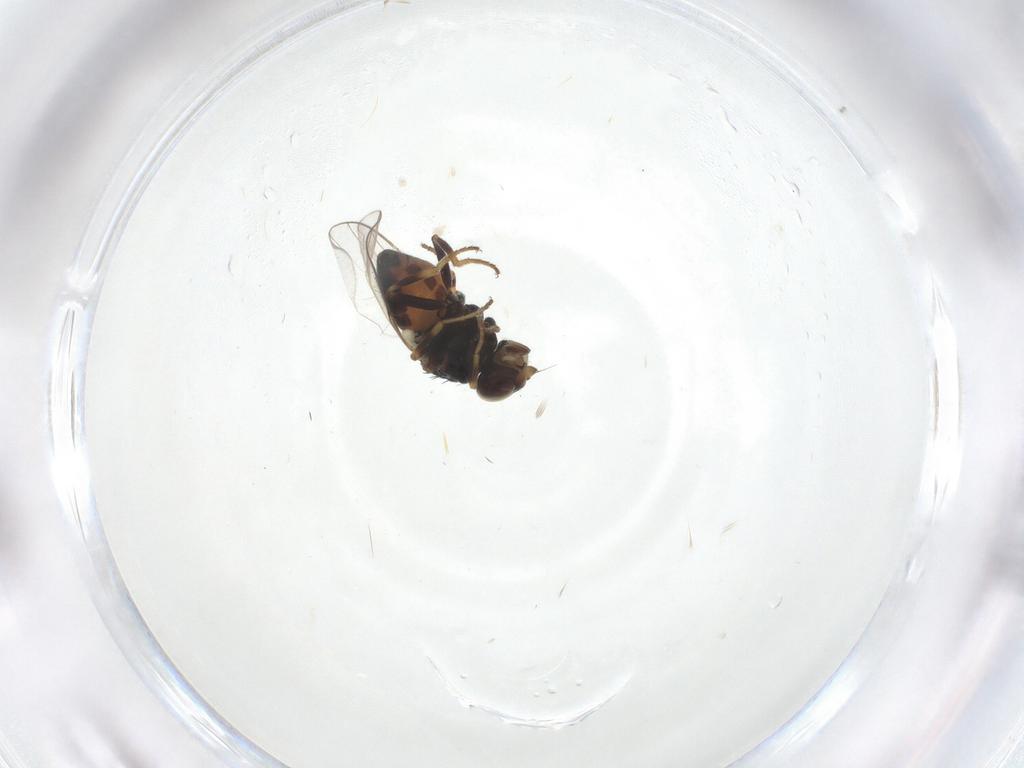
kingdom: Animalia
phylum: Arthropoda
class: Insecta
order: Diptera
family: Chloropidae
